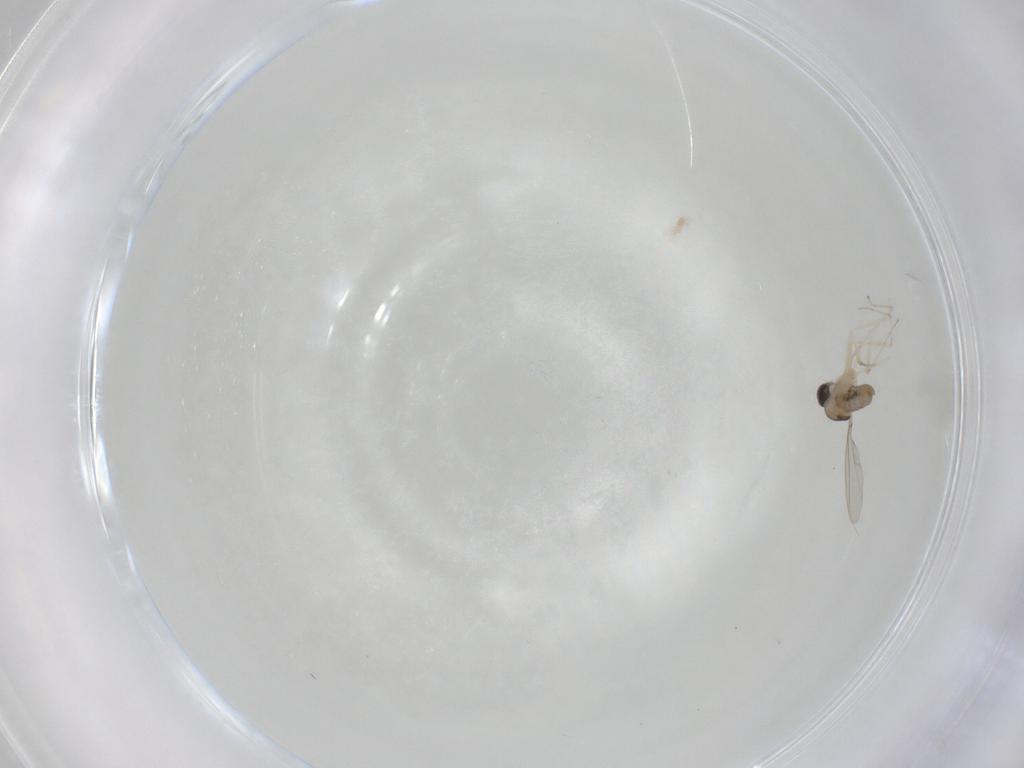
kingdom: Animalia
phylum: Arthropoda
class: Insecta
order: Diptera
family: Cecidomyiidae
